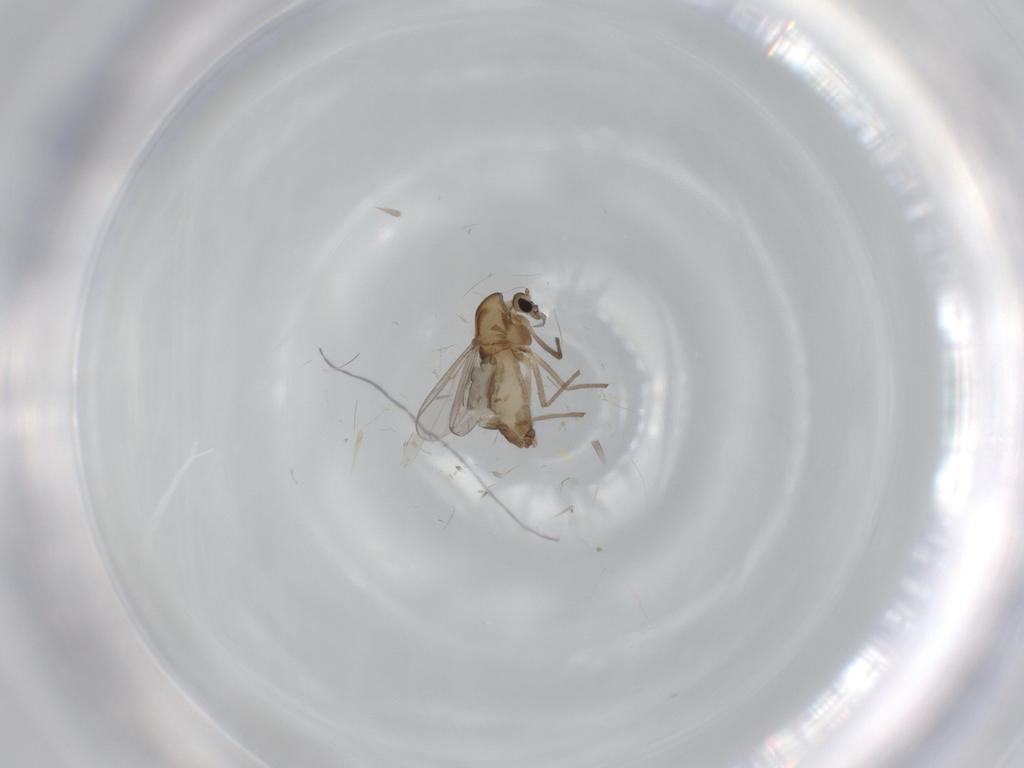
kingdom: Animalia
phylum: Arthropoda
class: Insecta
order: Diptera
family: Chironomidae
